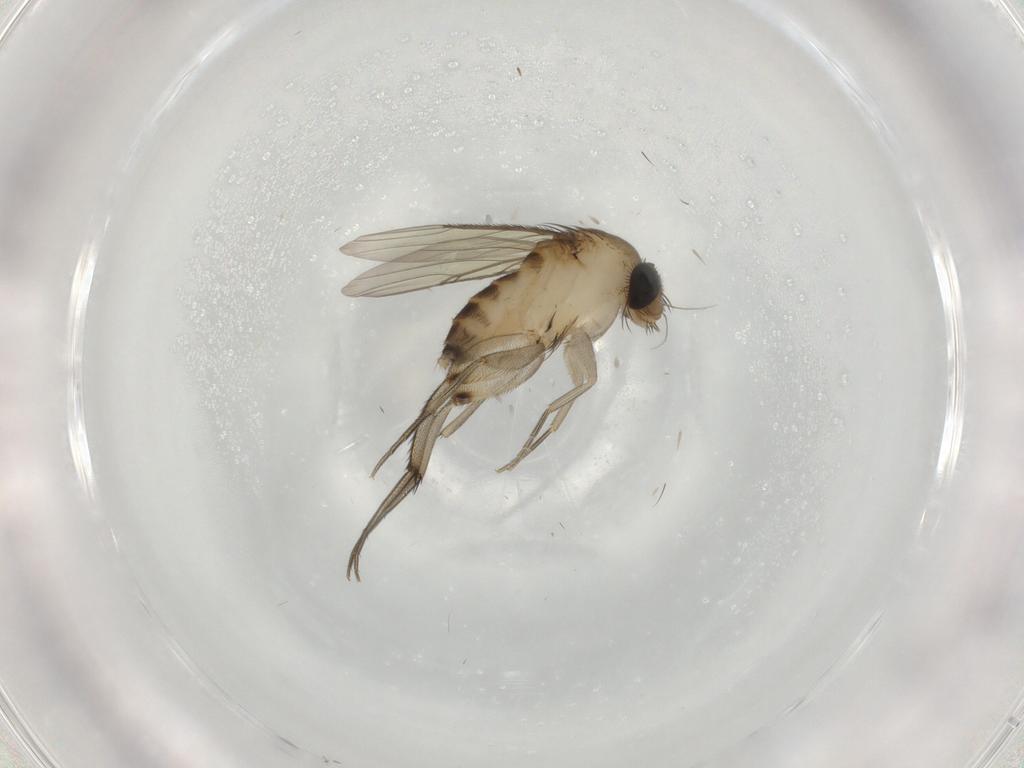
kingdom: Animalia
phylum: Arthropoda
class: Insecta
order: Diptera
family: Phoridae
